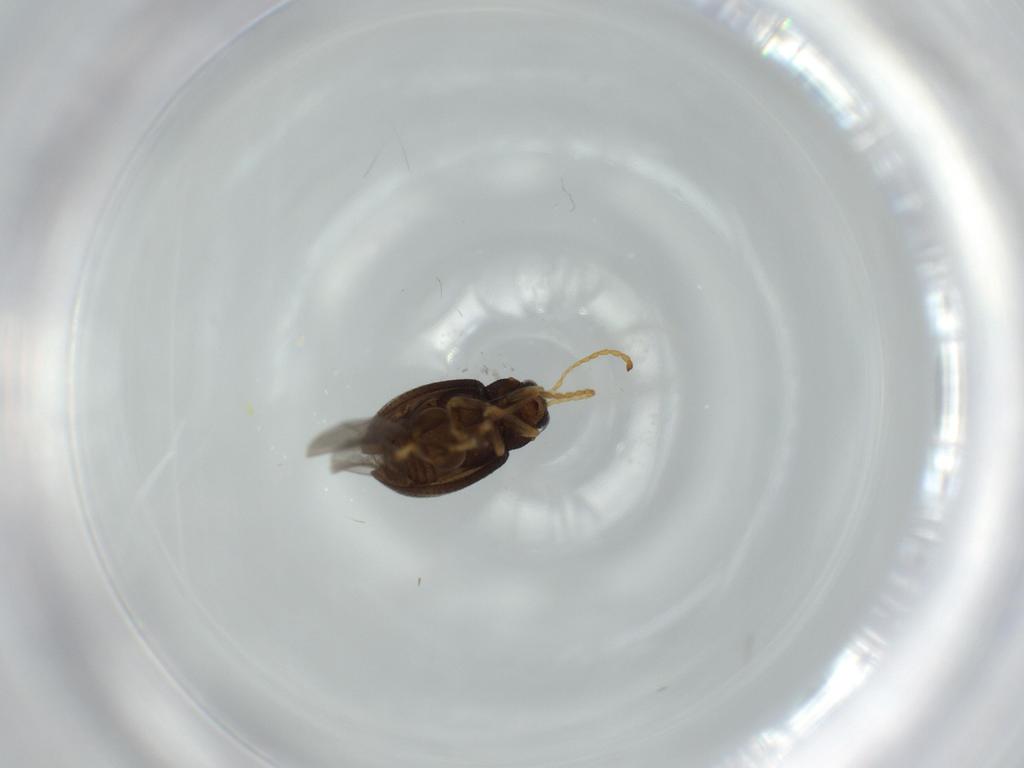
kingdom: Animalia
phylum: Arthropoda
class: Insecta
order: Coleoptera
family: Chrysomelidae
